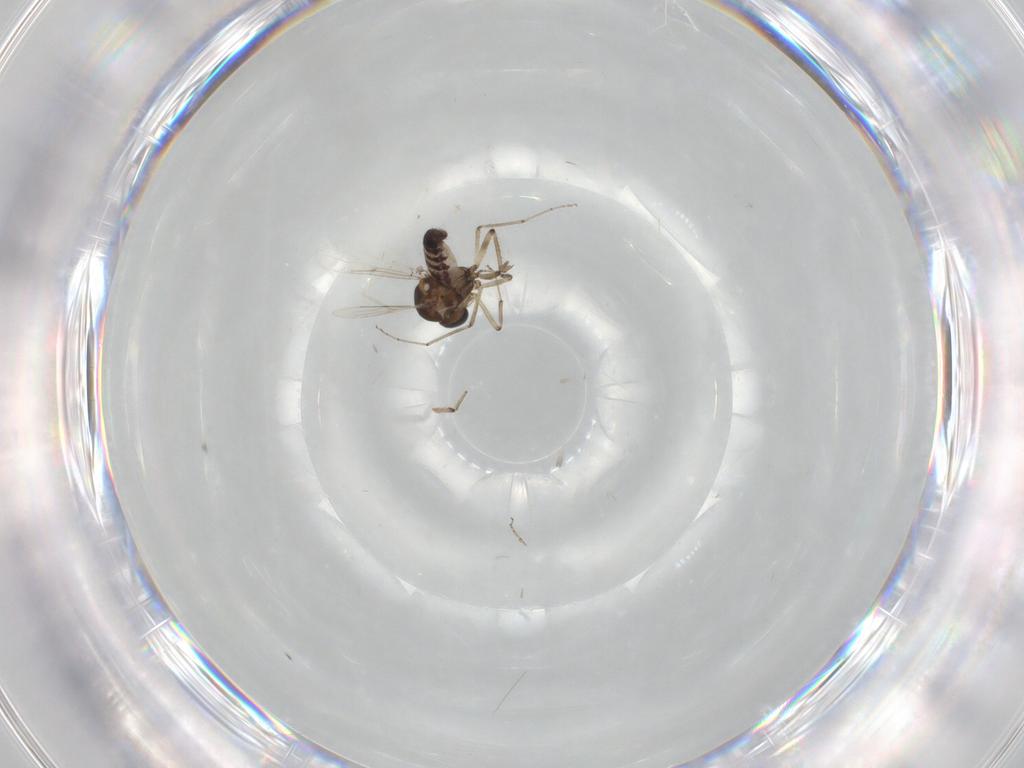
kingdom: Animalia
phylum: Arthropoda
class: Insecta
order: Diptera
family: Ceratopogonidae
